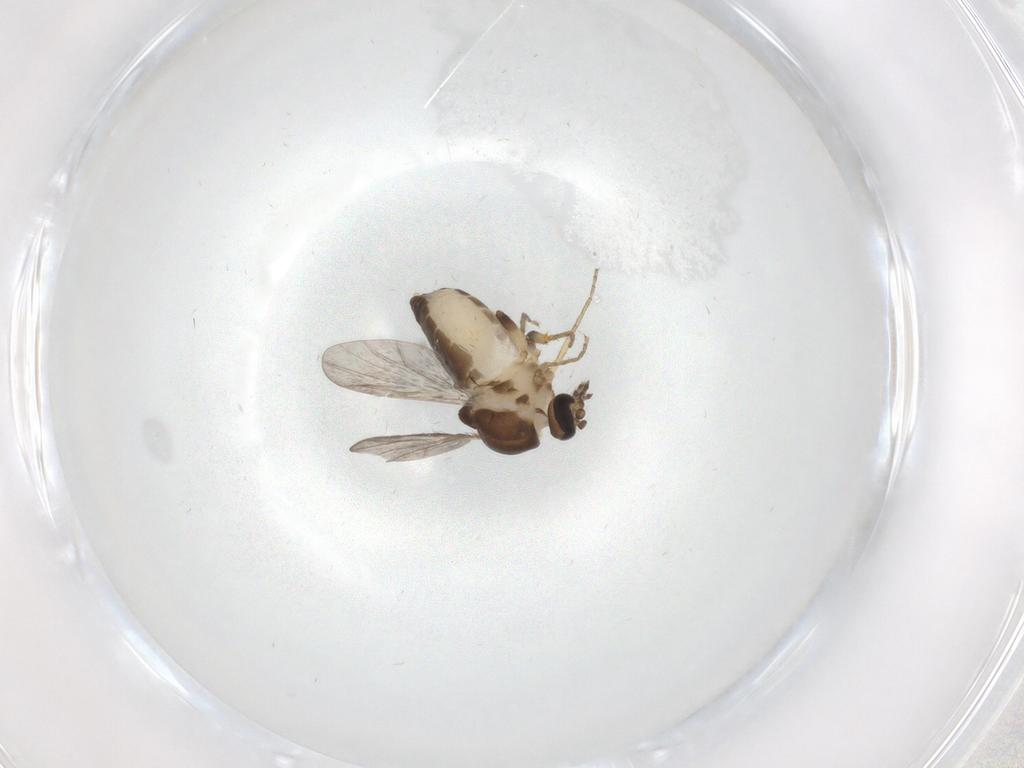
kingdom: Animalia
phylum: Arthropoda
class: Insecta
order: Diptera
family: Ceratopogonidae
